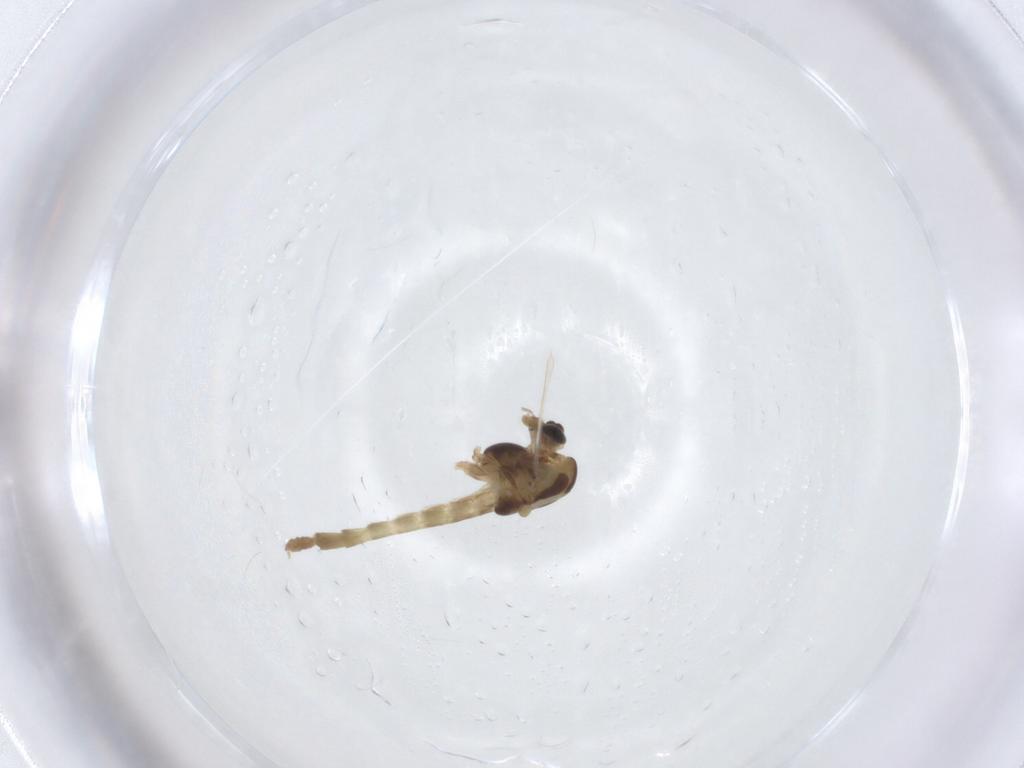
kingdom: Animalia
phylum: Arthropoda
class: Insecta
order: Diptera
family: Chironomidae
